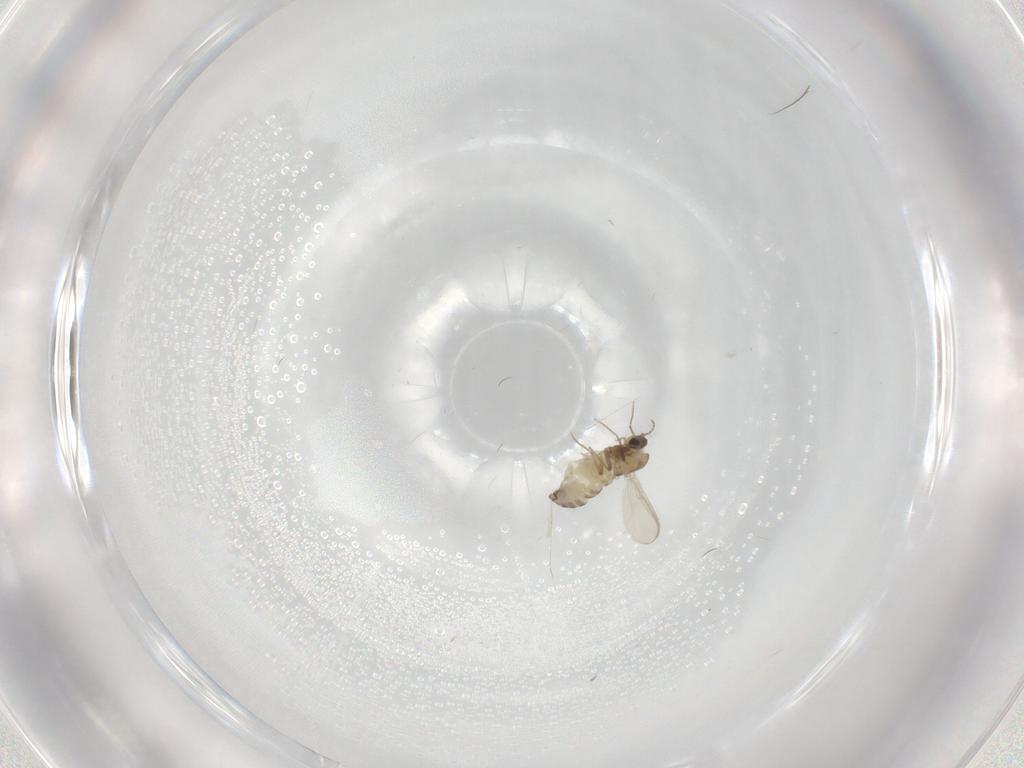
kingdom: Animalia
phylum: Arthropoda
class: Insecta
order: Diptera
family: Chironomidae
